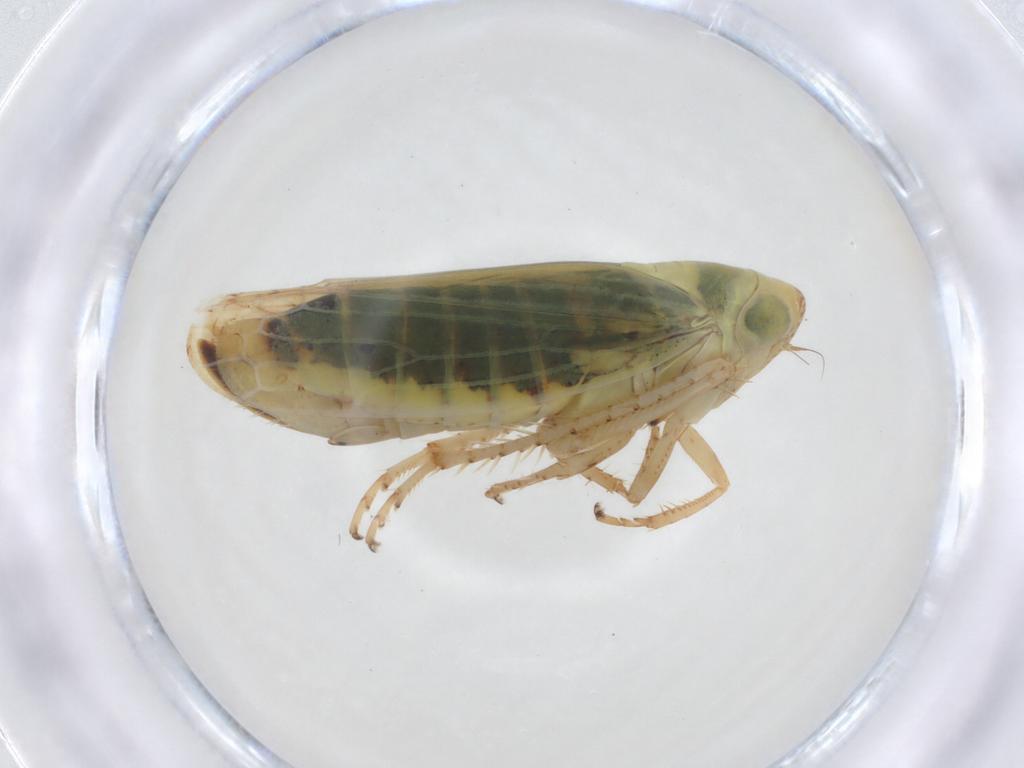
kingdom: Animalia
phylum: Arthropoda
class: Insecta
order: Hemiptera
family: Cicadellidae
